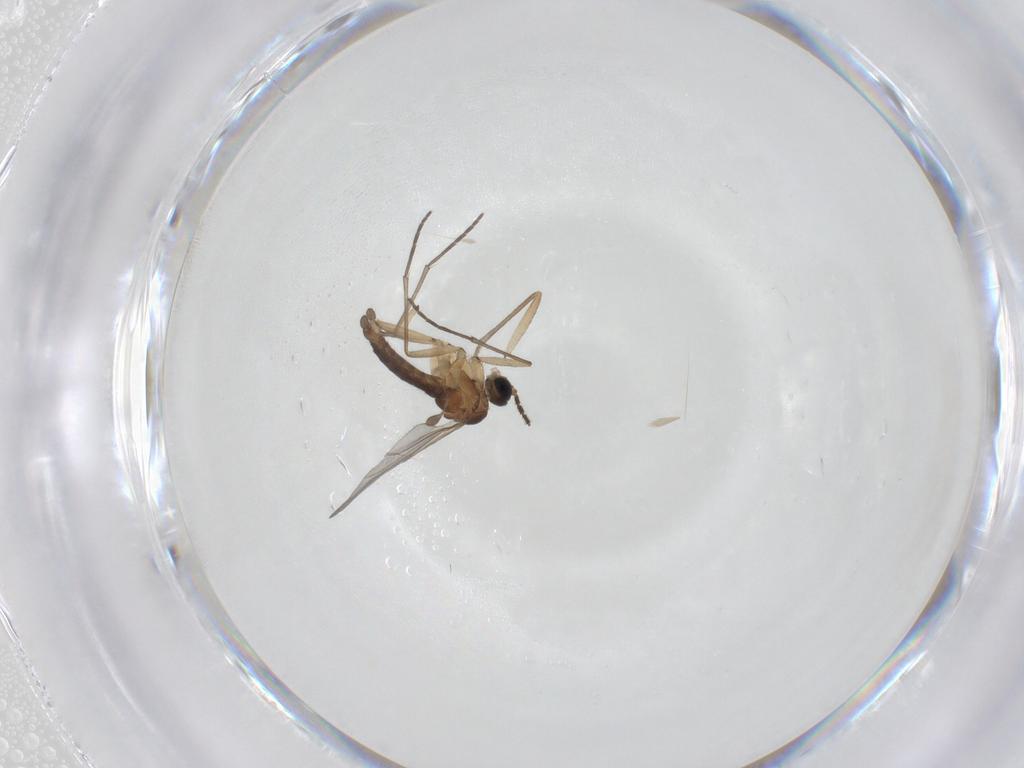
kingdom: Animalia
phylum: Arthropoda
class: Insecta
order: Diptera
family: Sciaridae
